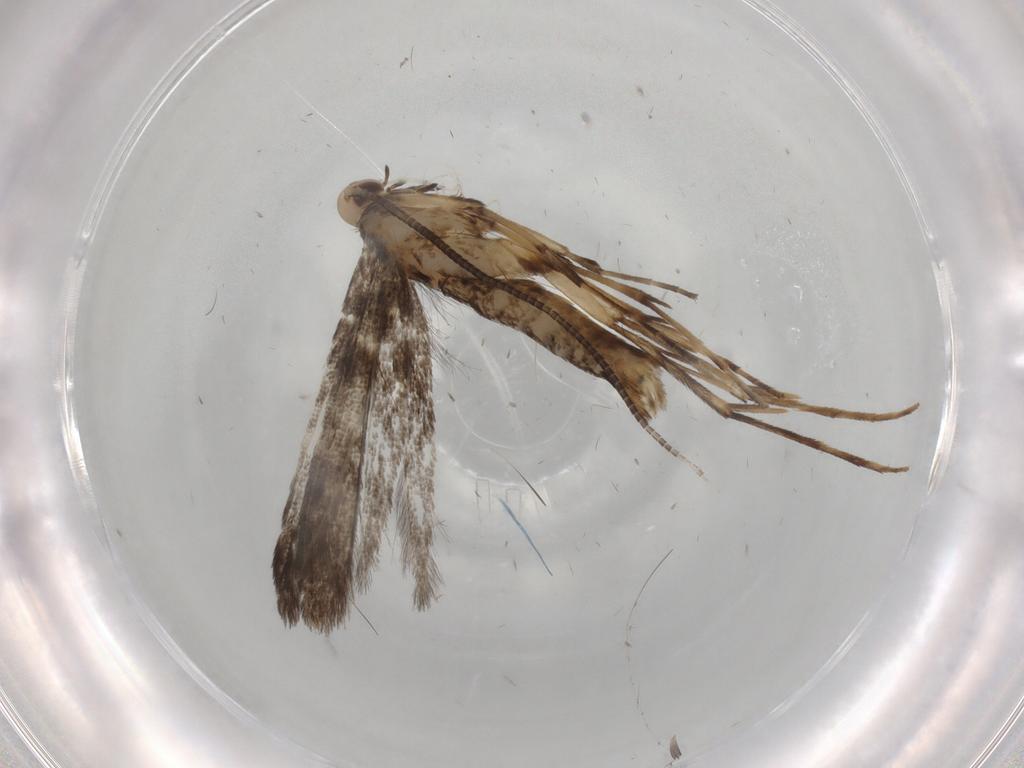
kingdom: Animalia
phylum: Arthropoda
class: Insecta
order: Lepidoptera
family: Gracillariidae
